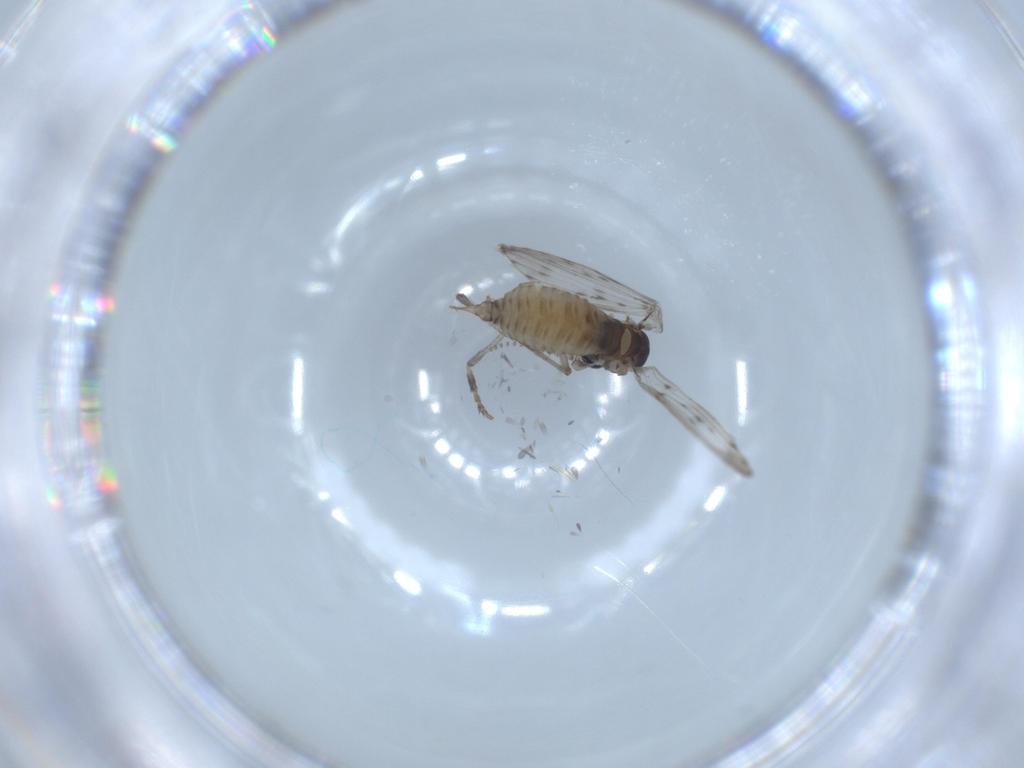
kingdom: Animalia
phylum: Arthropoda
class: Insecta
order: Diptera
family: Psychodidae
